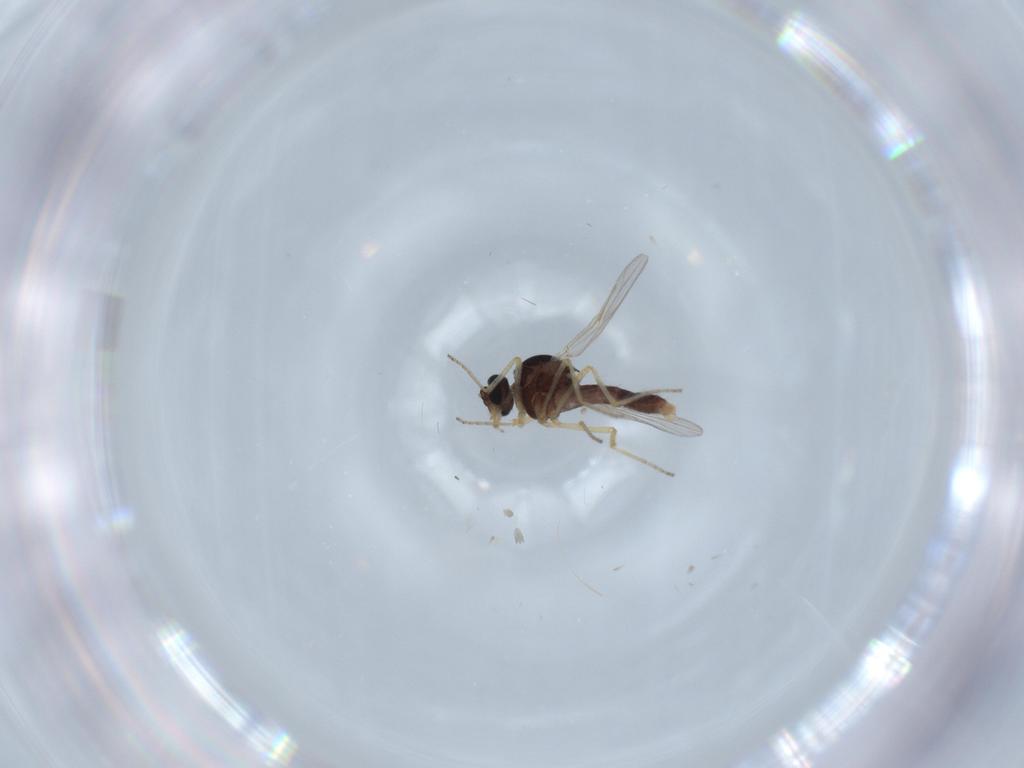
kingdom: Animalia
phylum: Arthropoda
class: Insecta
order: Diptera
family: Ceratopogonidae
